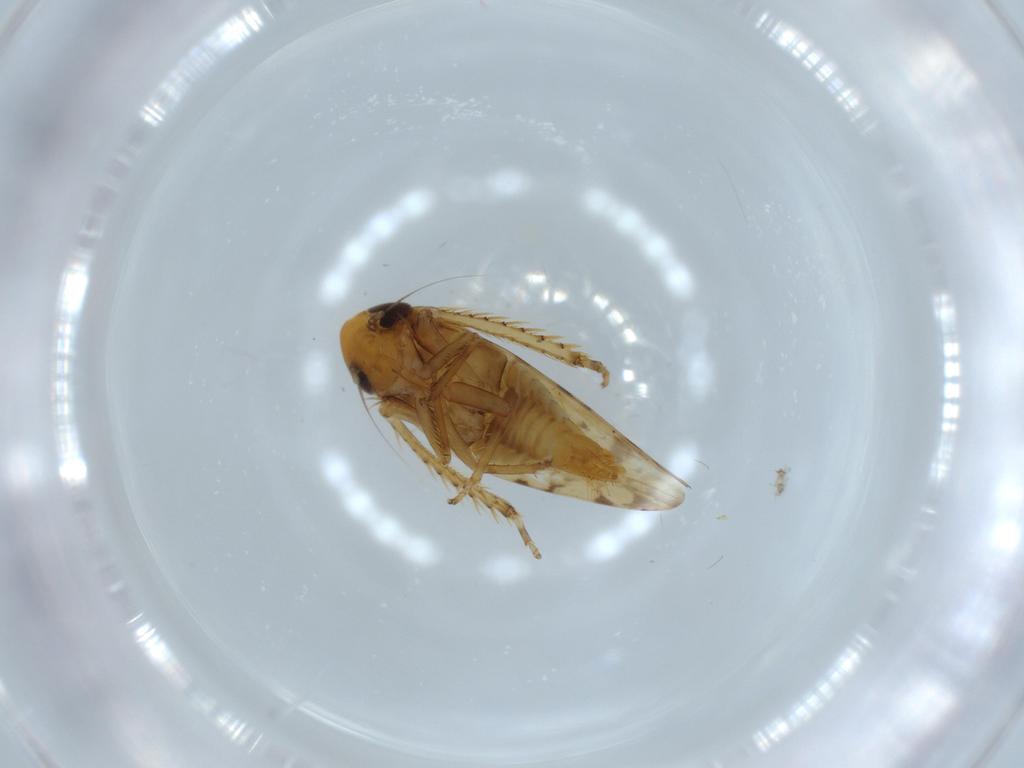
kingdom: Animalia
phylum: Arthropoda
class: Insecta
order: Hemiptera
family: Cicadellidae
